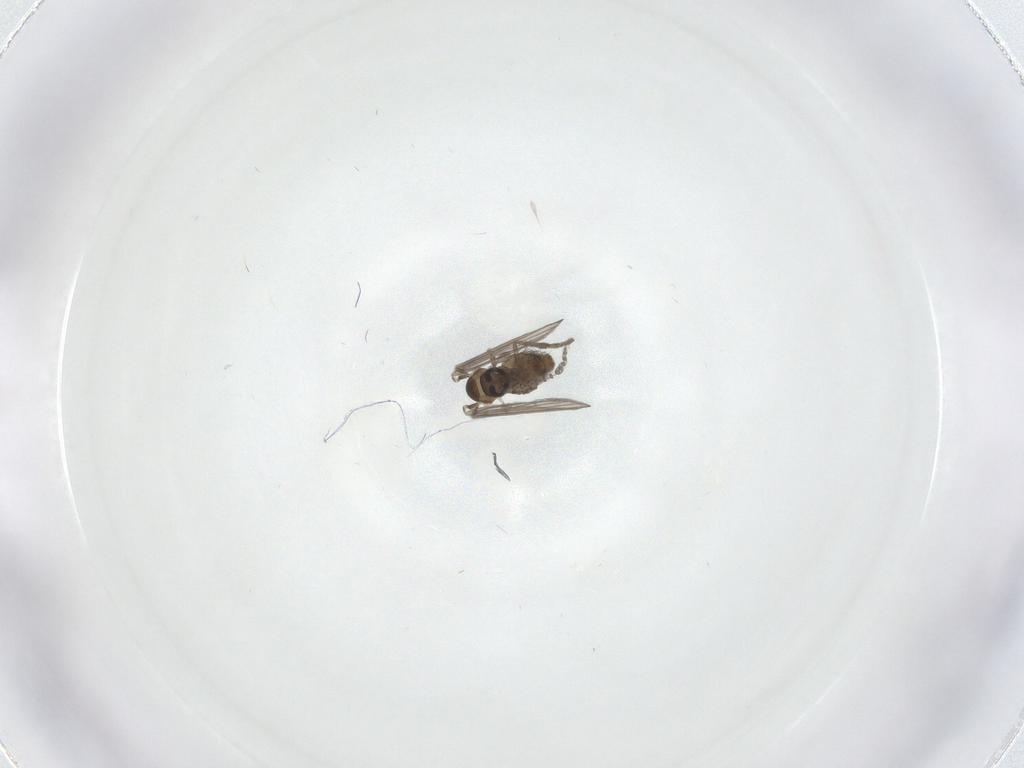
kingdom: Animalia
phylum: Arthropoda
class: Insecta
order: Diptera
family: Psychodidae
